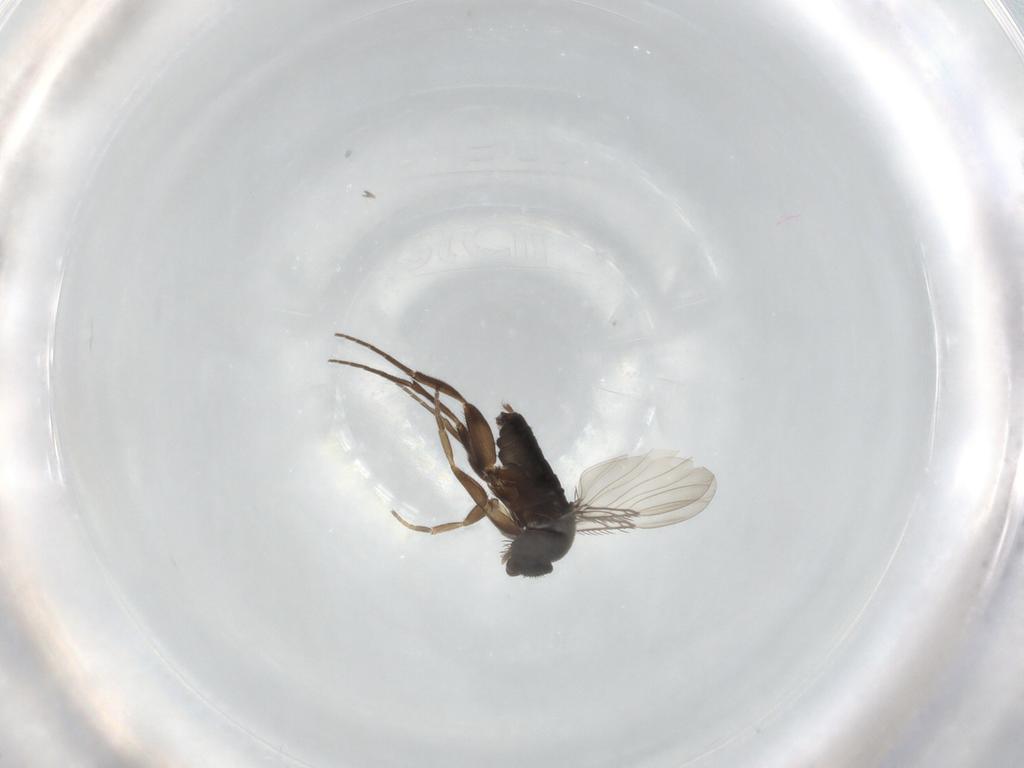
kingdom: Animalia
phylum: Arthropoda
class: Insecta
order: Diptera
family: Phoridae
